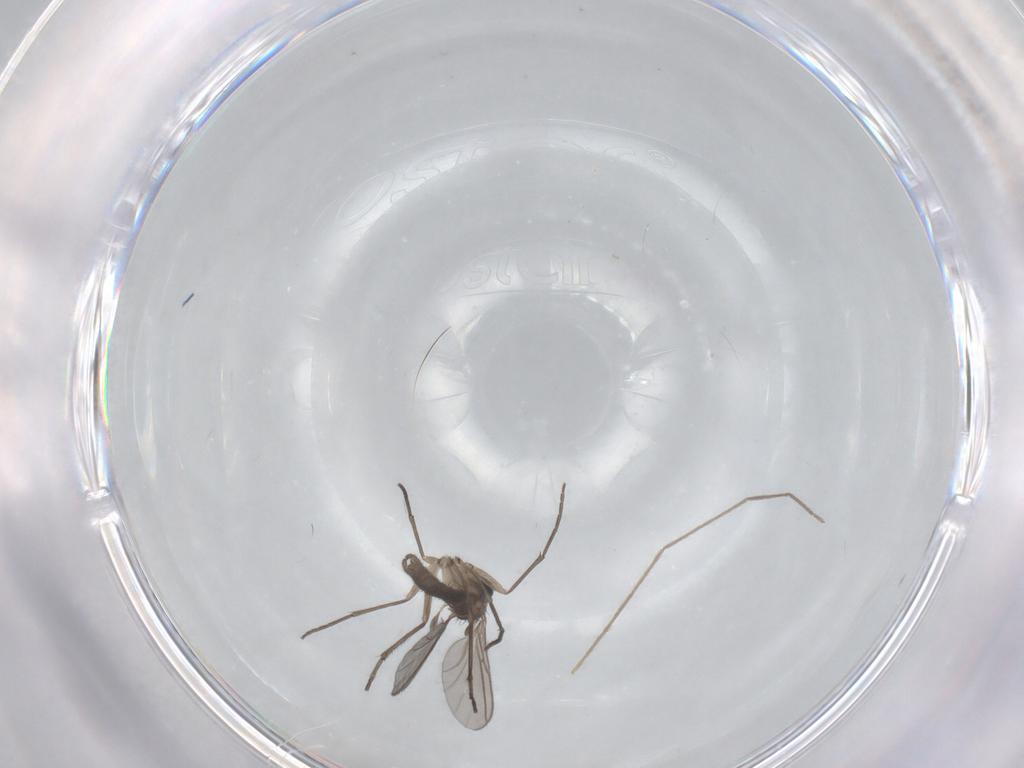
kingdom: Animalia
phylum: Arthropoda
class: Insecta
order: Diptera
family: Sciaridae
